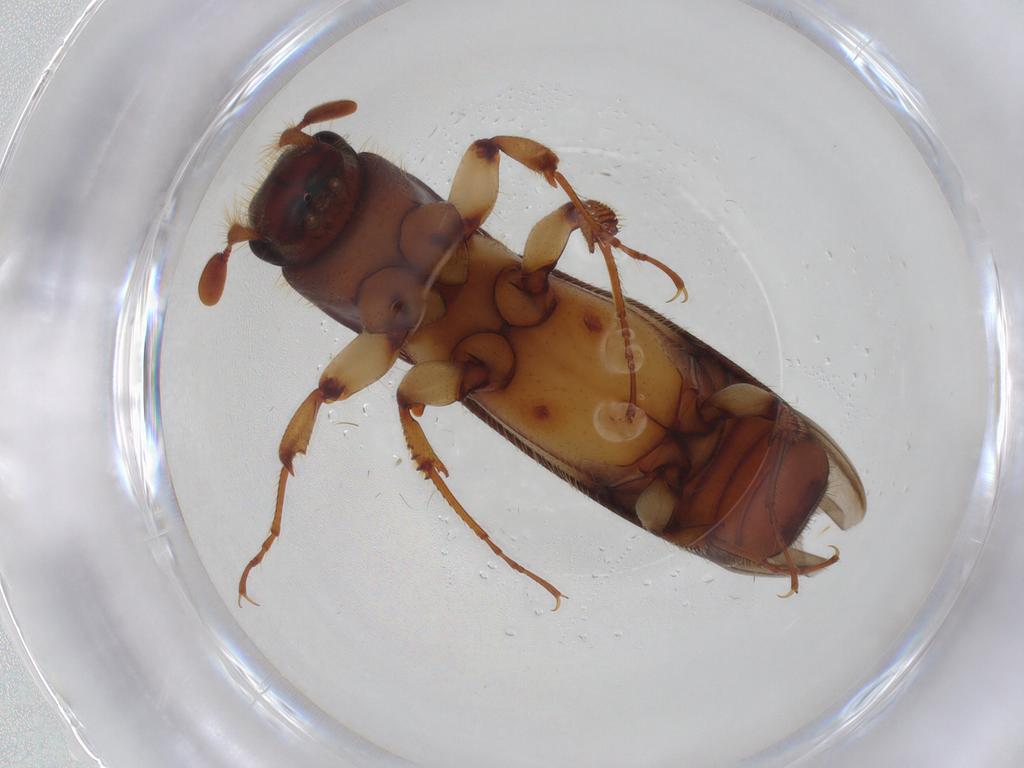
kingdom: Animalia
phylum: Arthropoda
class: Insecta
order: Coleoptera
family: Curculionidae
